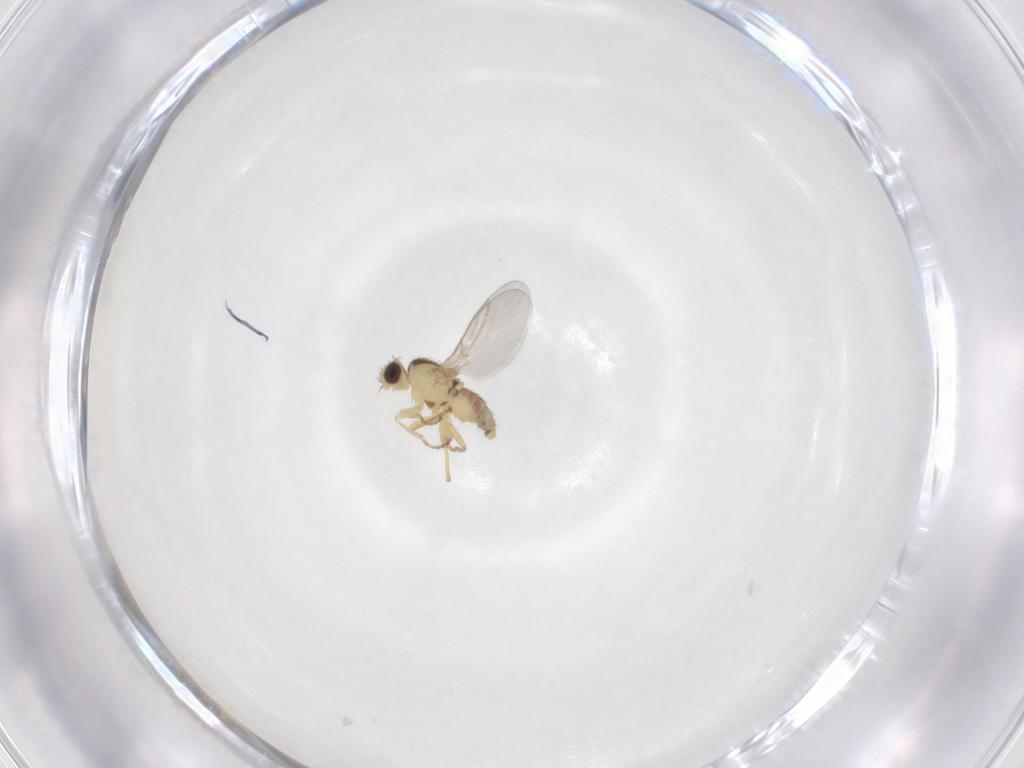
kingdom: Animalia
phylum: Arthropoda
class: Insecta
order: Diptera
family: Agromyzidae
